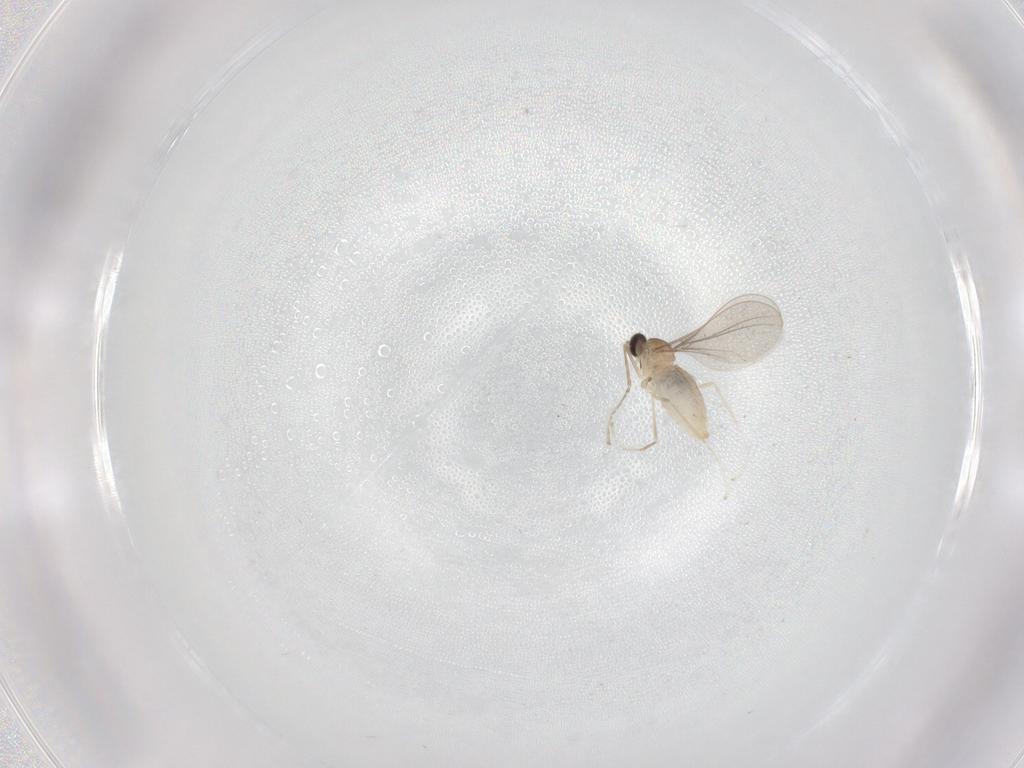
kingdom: Animalia
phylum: Arthropoda
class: Insecta
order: Diptera
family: Cecidomyiidae
